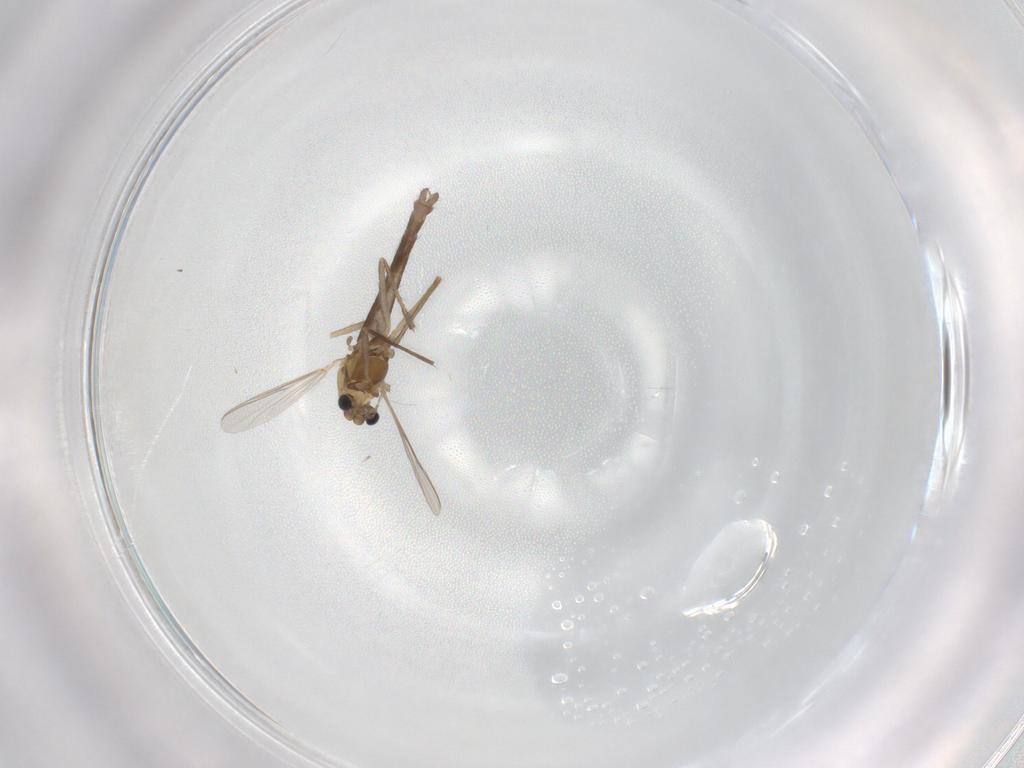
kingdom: Animalia
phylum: Arthropoda
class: Insecta
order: Diptera
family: Chironomidae
